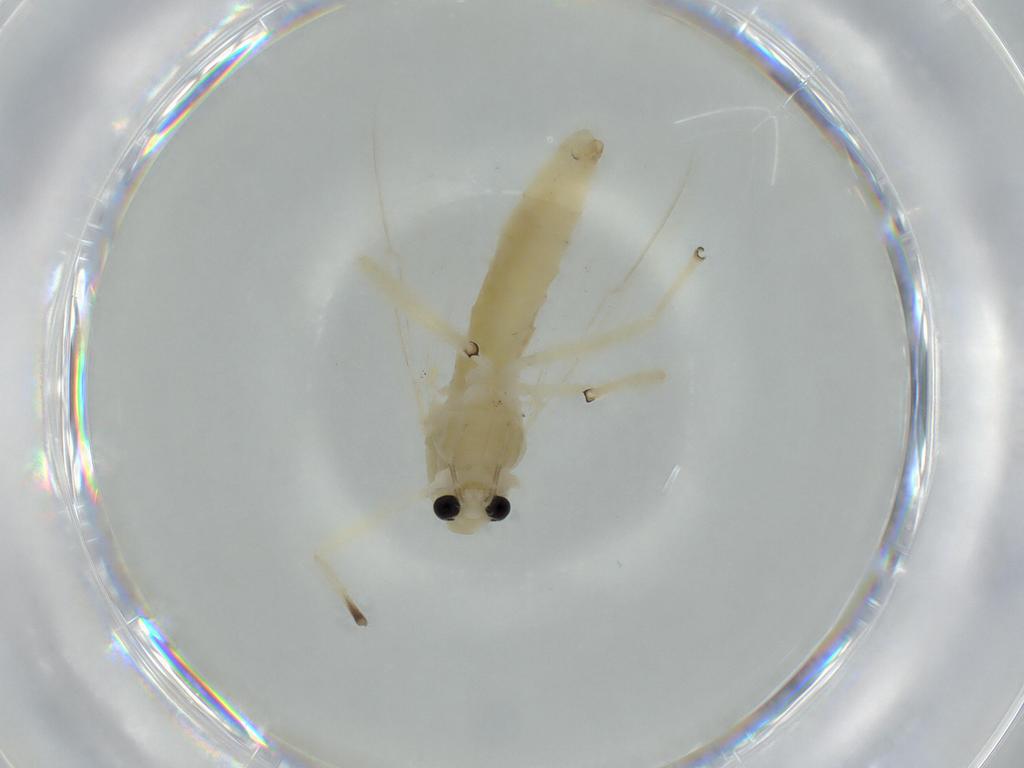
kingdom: Animalia
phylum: Arthropoda
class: Insecta
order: Diptera
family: Chironomidae
